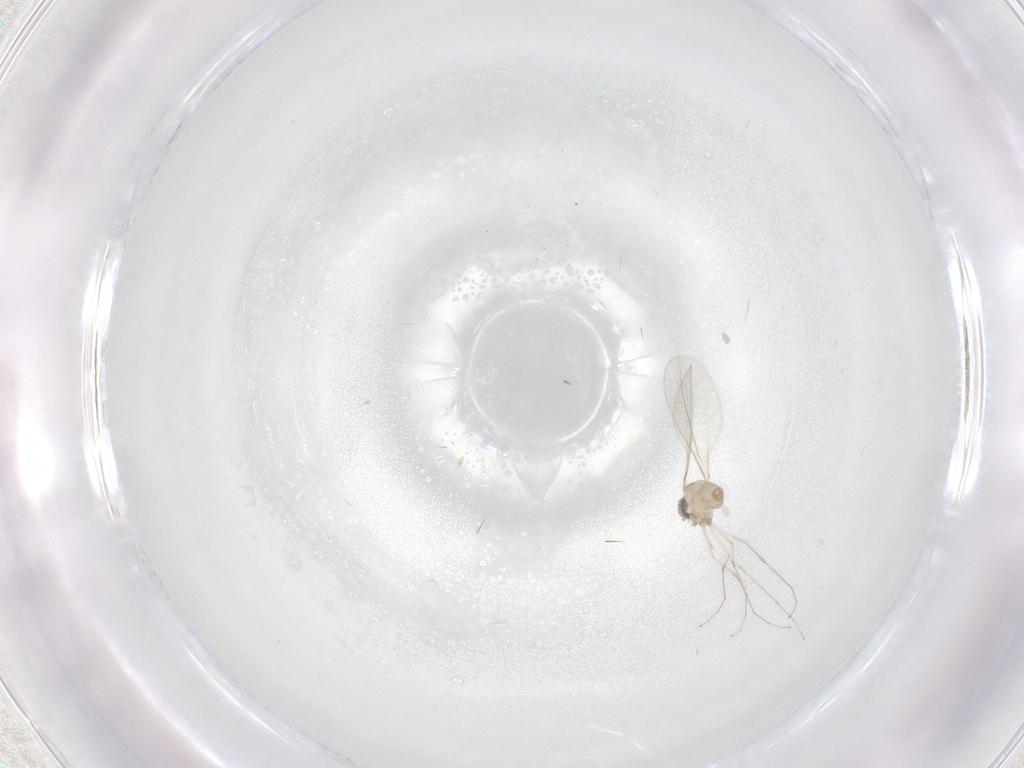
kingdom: Animalia
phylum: Arthropoda
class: Insecta
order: Diptera
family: Cecidomyiidae
